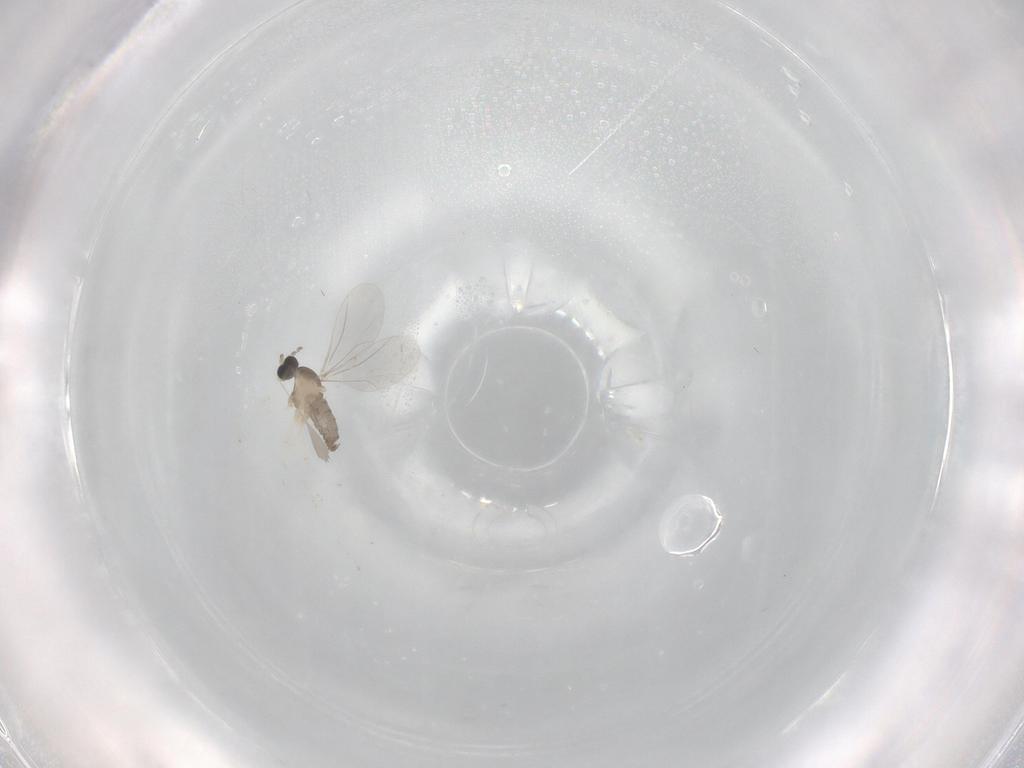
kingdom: Animalia
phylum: Arthropoda
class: Insecta
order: Diptera
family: Cecidomyiidae
